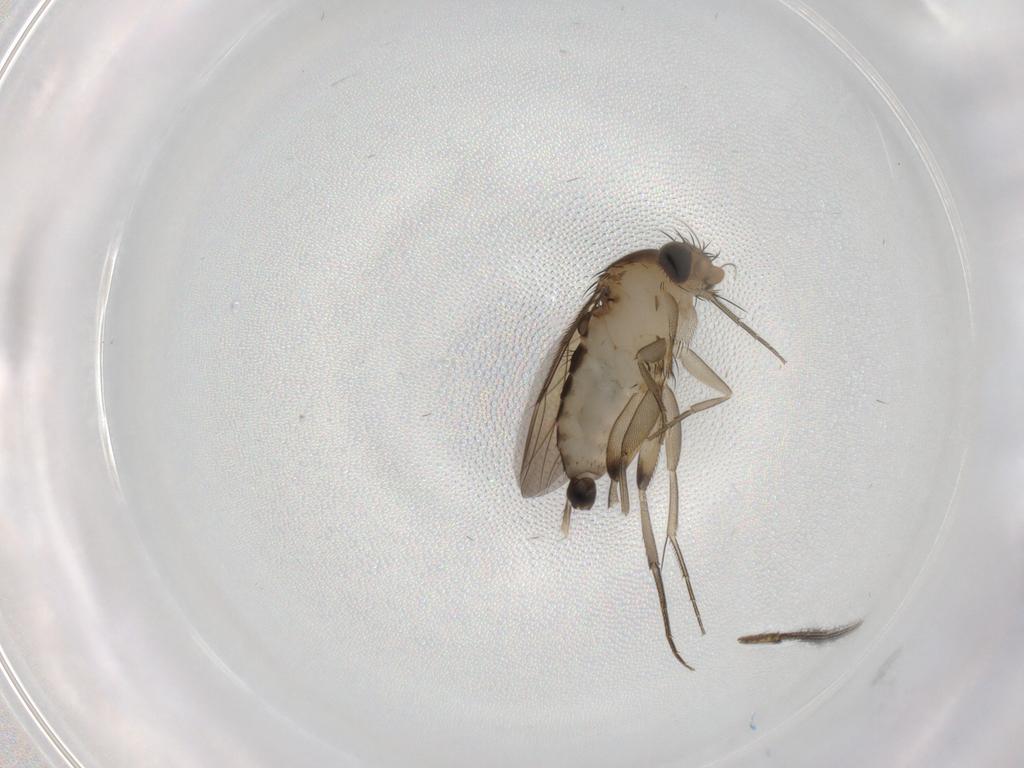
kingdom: Animalia
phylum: Arthropoda
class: Insecta
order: Diptera
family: Phoridae
